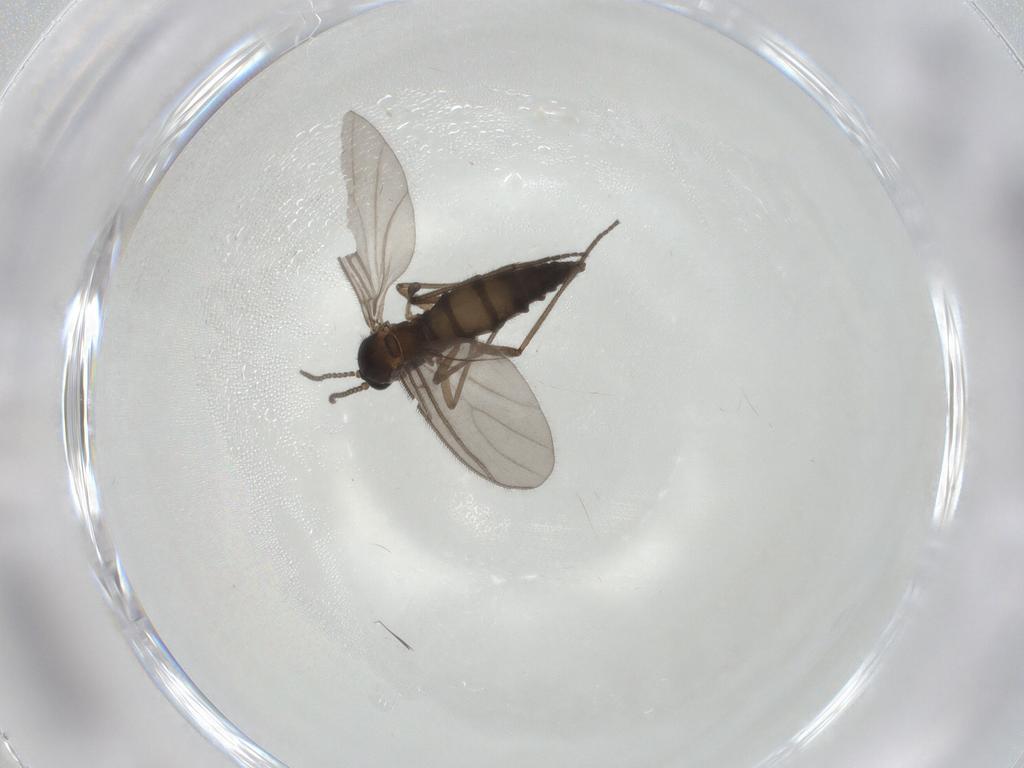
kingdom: Animalia
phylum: Arthropoda
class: Insecta
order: Diptera
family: Sciaridae
